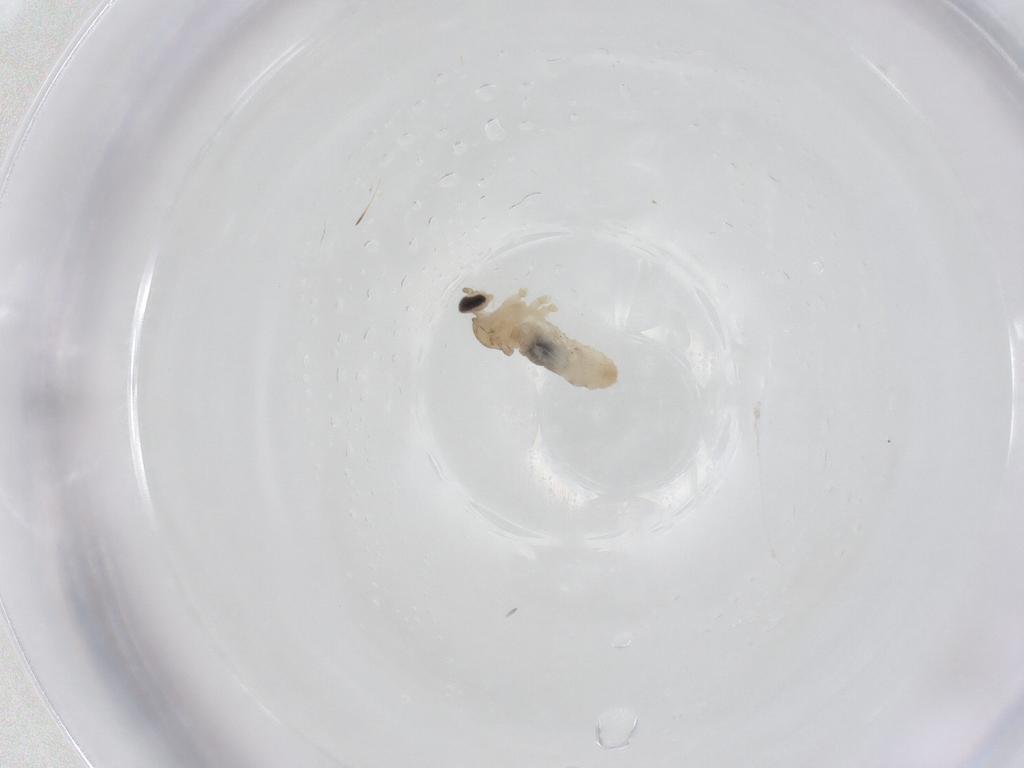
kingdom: Animalia
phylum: Arthropoda
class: Insecta
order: Diptera
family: Cecidomyiidae
